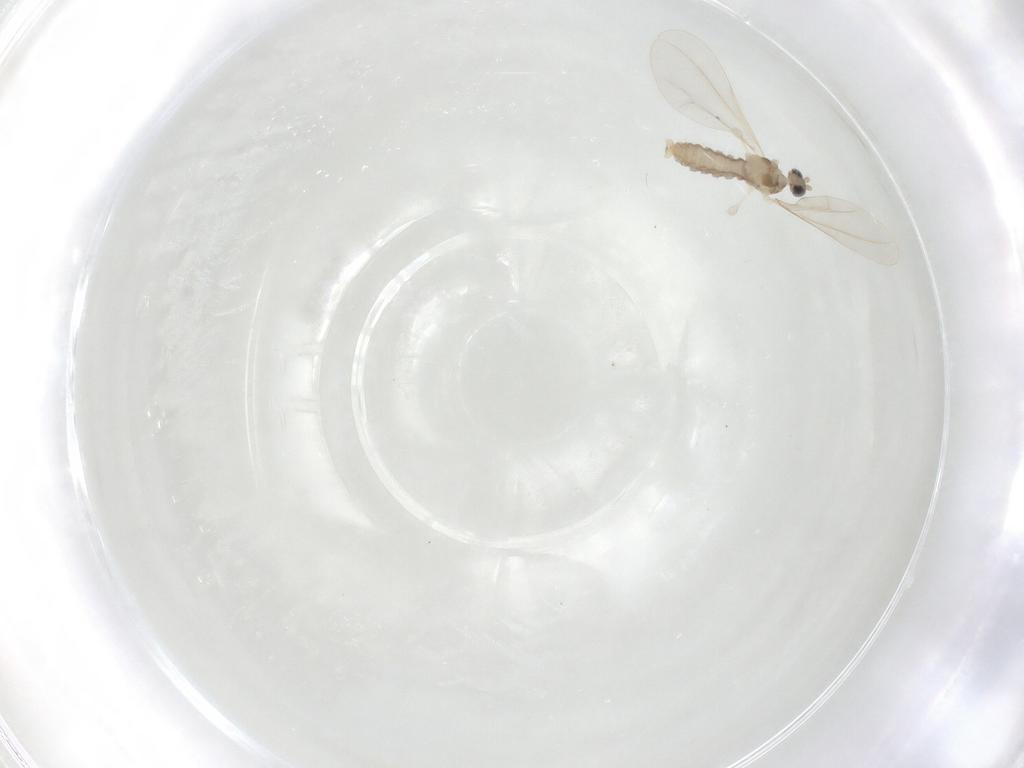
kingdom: Animalia
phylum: Arthropoda
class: Insecta
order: Diptera
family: Cecidomyiidae
